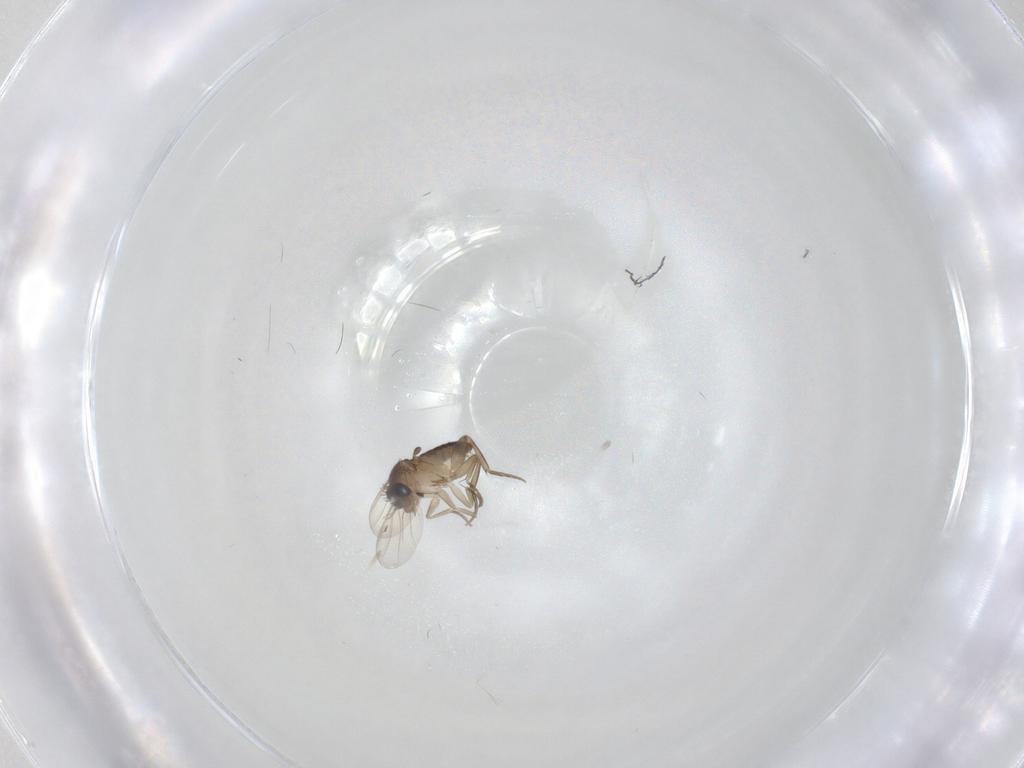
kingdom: Animalia
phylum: Arthropoda
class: Insecta
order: Diptera
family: Phoridae
